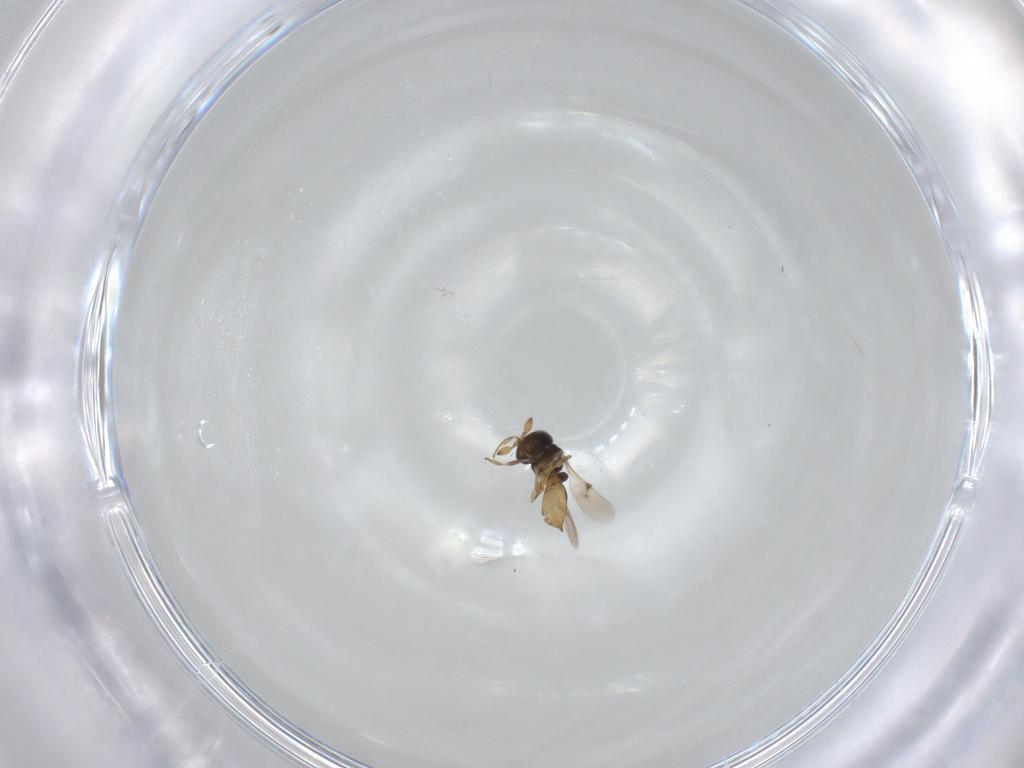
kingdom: Animalia
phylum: Arthropoda
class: Insecta
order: Hymenoptera
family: Scelionidae
